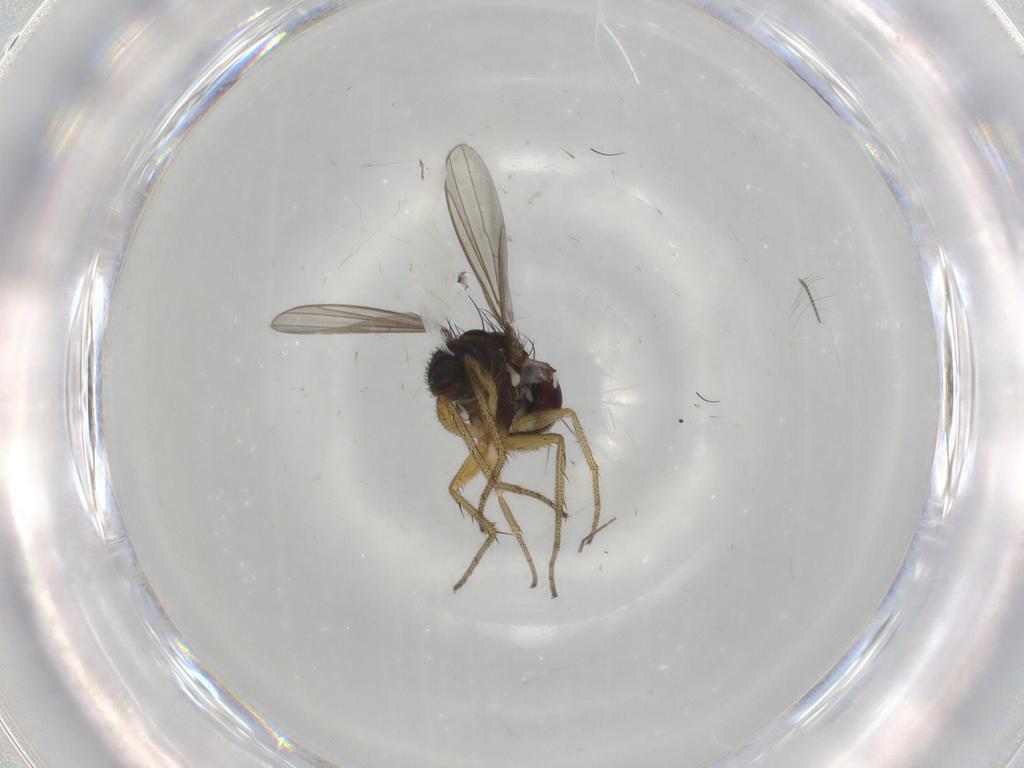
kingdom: Animalia
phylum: Arthropoda
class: Insecta
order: Diptera
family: Dolichopodidae
